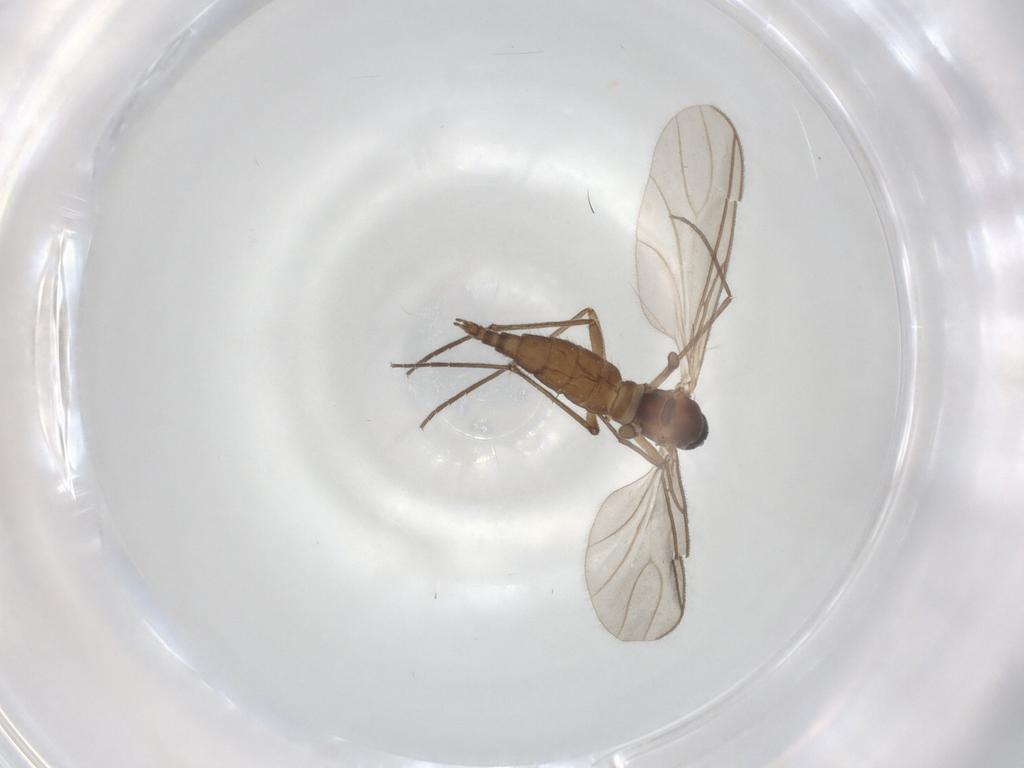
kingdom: Animalia
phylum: Arthropoda
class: Insecta
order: Diptera
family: Sciaridae
